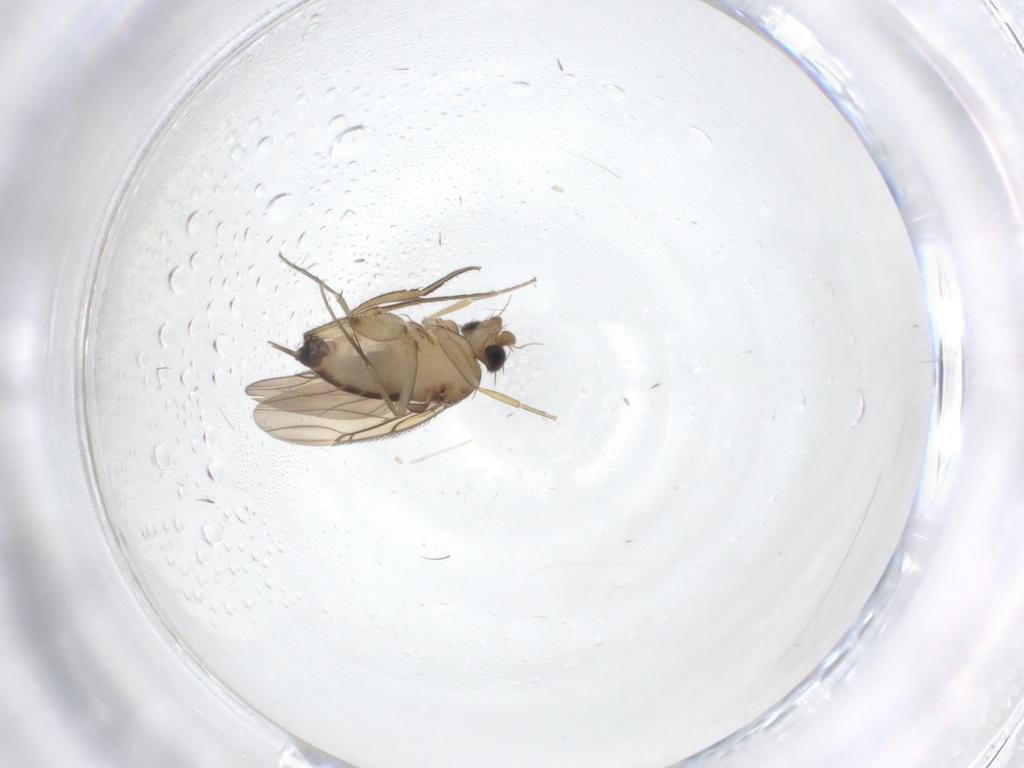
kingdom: Animalia
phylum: Arthropoda
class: Insecta
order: Diptera
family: Phoridae
